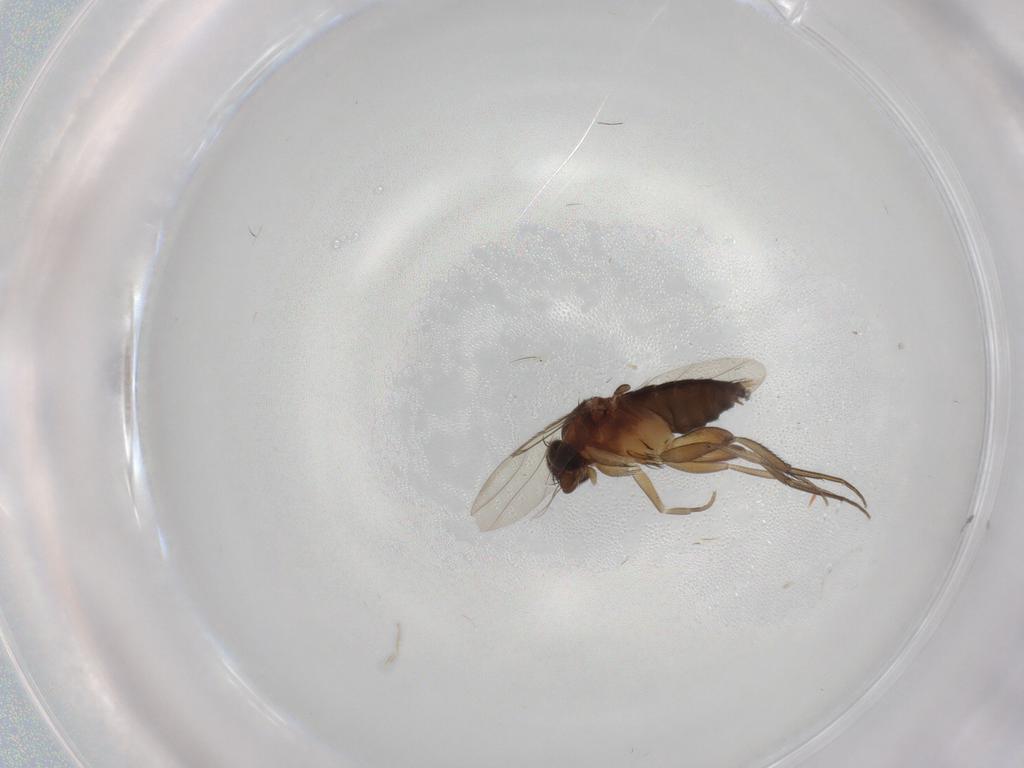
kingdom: Animalia
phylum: Arthropoda
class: Insecta
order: Diptera
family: Phoridae
